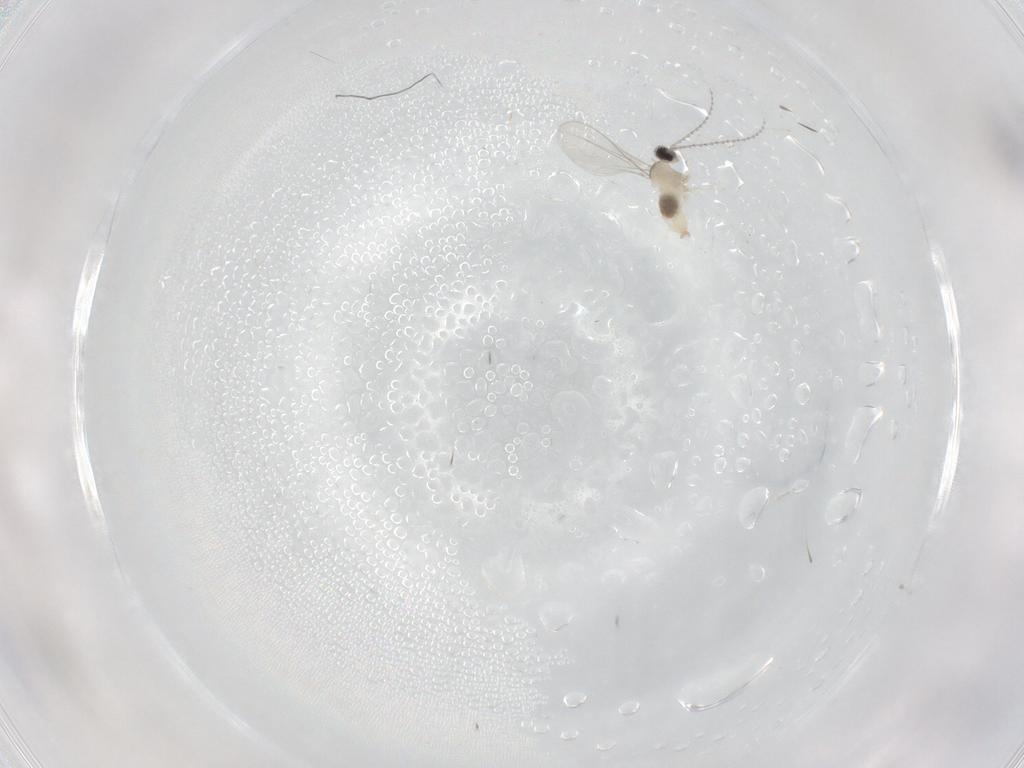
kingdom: Animalia
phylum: Arthropoda
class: Insecta
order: Diptera
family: Cecidomyiidae
